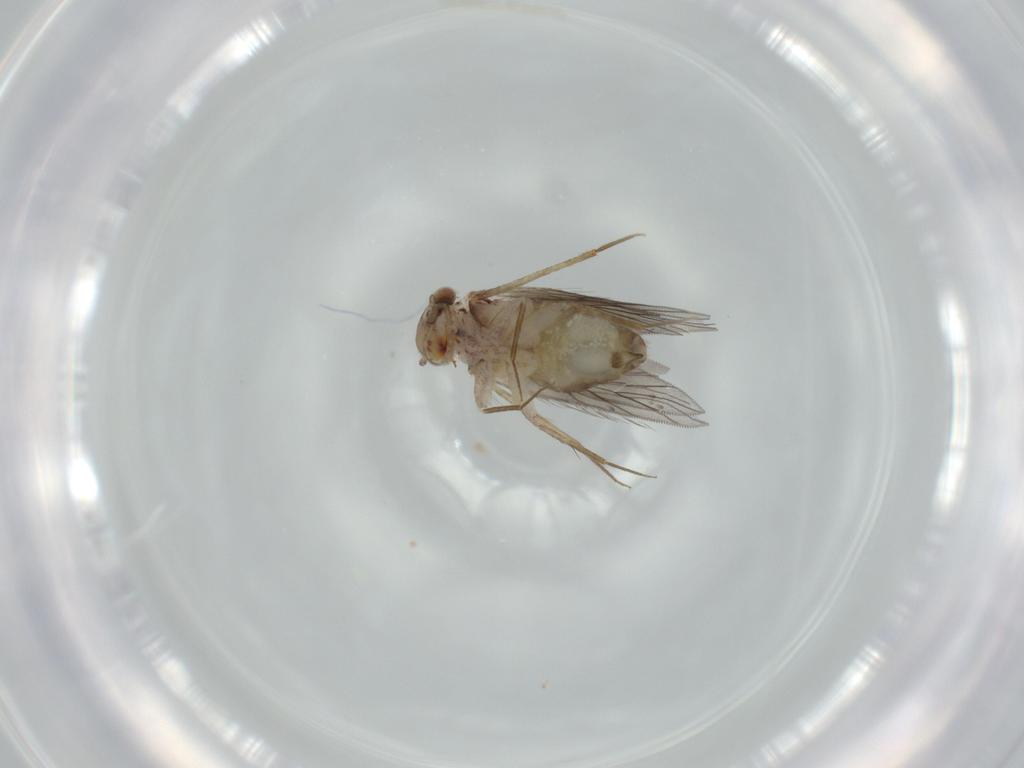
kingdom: Animalia
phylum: Arthropoda
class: Insecta
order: Psocodea
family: Lepidopsocidae
